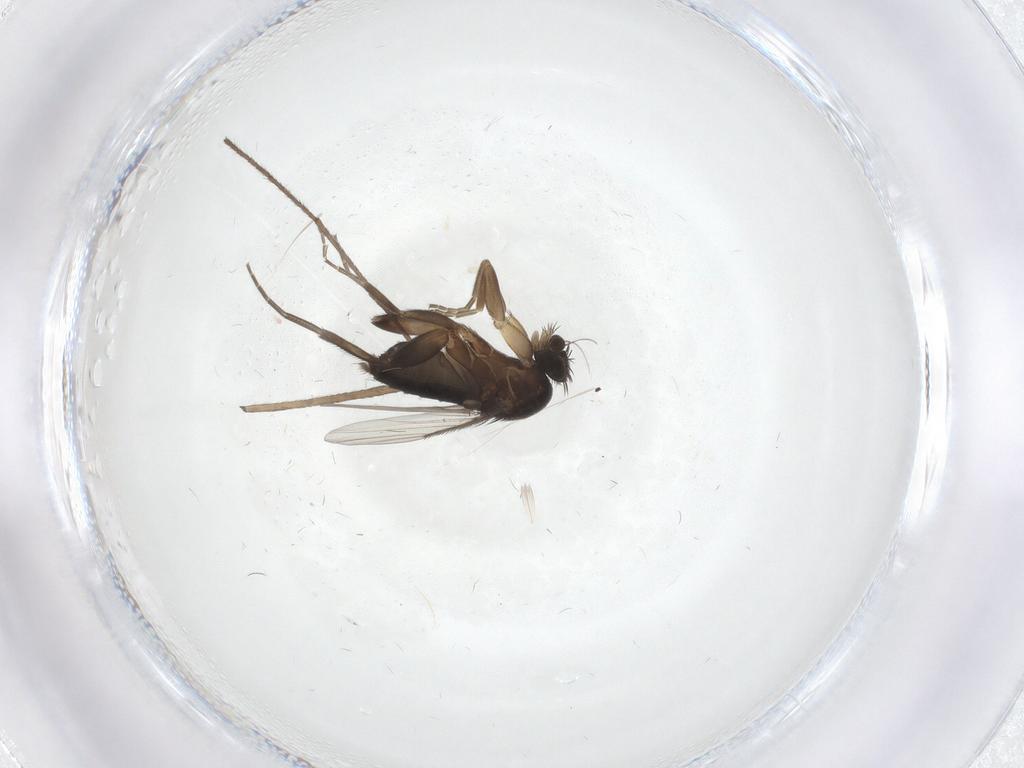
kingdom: Animalia
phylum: Arthropoda
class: Insecta
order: Diptera
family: Phoridae
